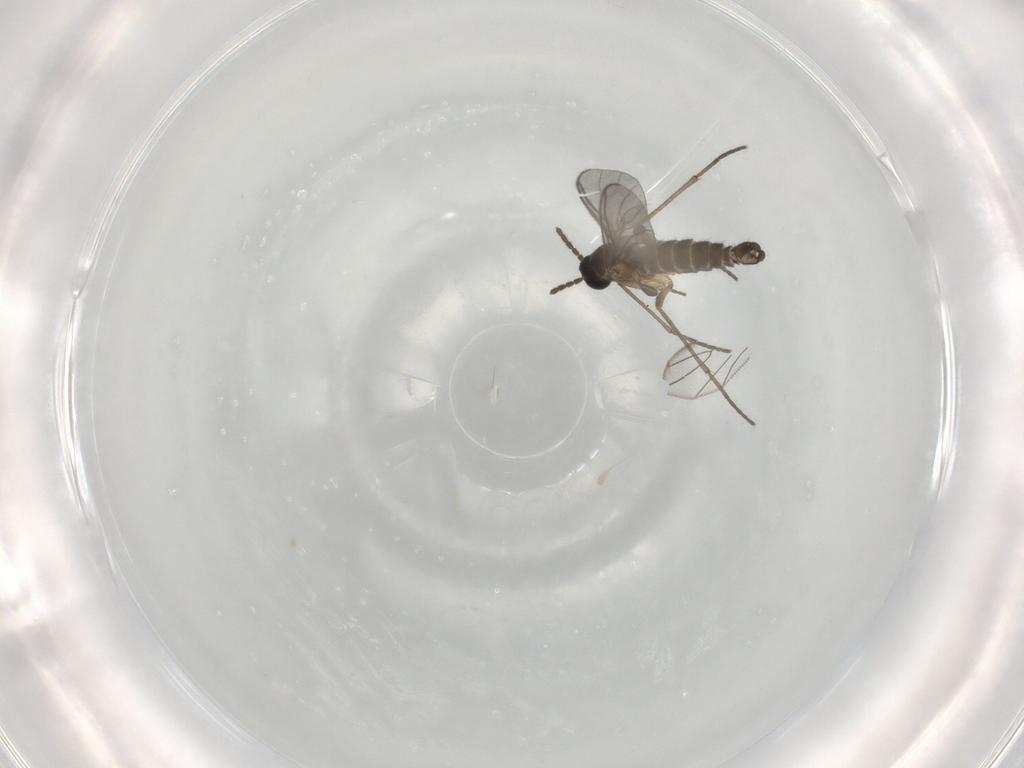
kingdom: Animalia
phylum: Arthropoda
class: Insecta
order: Diptera
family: Sciaridae
